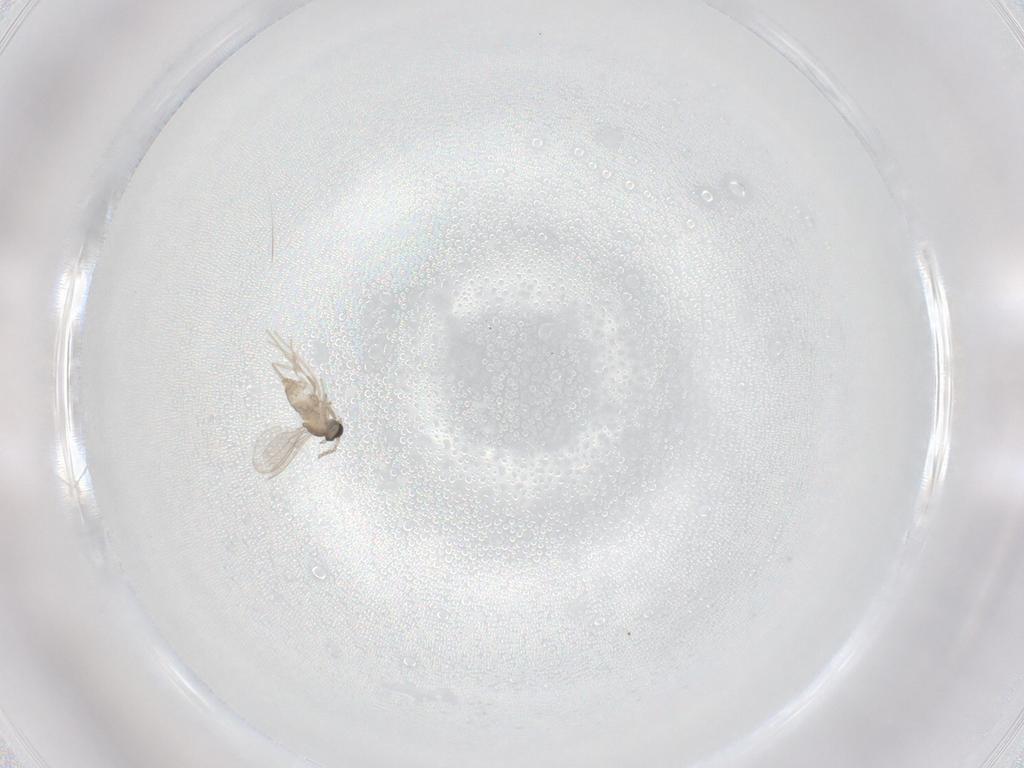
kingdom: Animalia
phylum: Arthropoda
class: Insecta
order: Diptera
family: Cecidomyiidae
